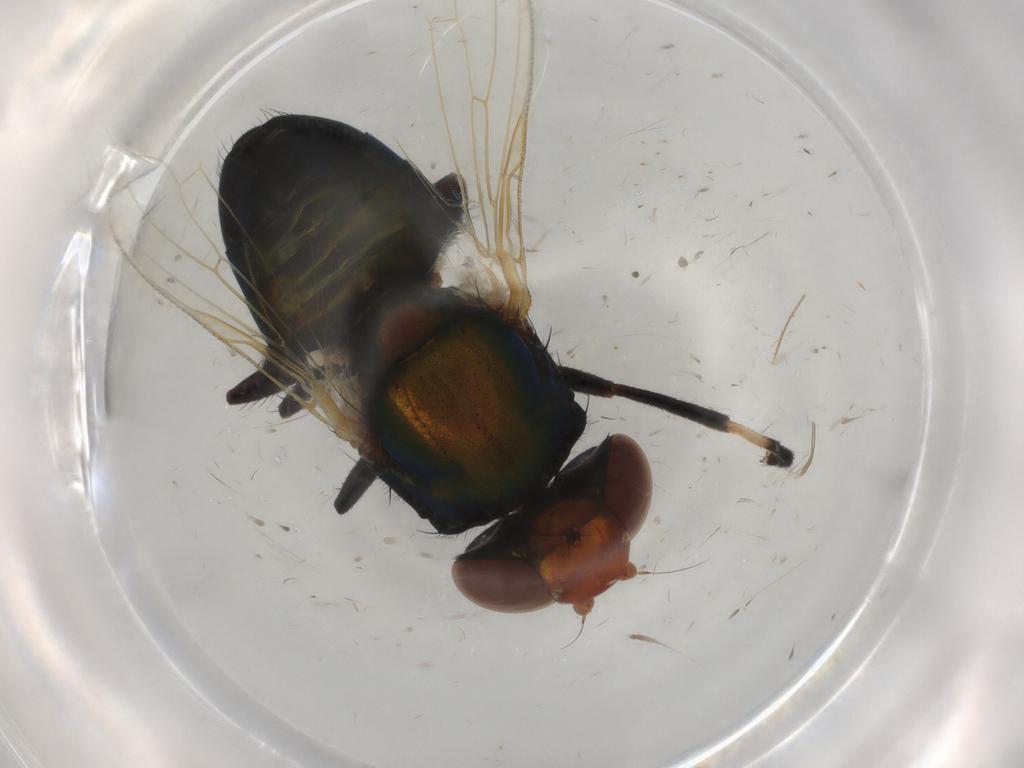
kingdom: Animalia
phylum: Arthropoda
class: Insecta
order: Diptera
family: Ulidiidae
